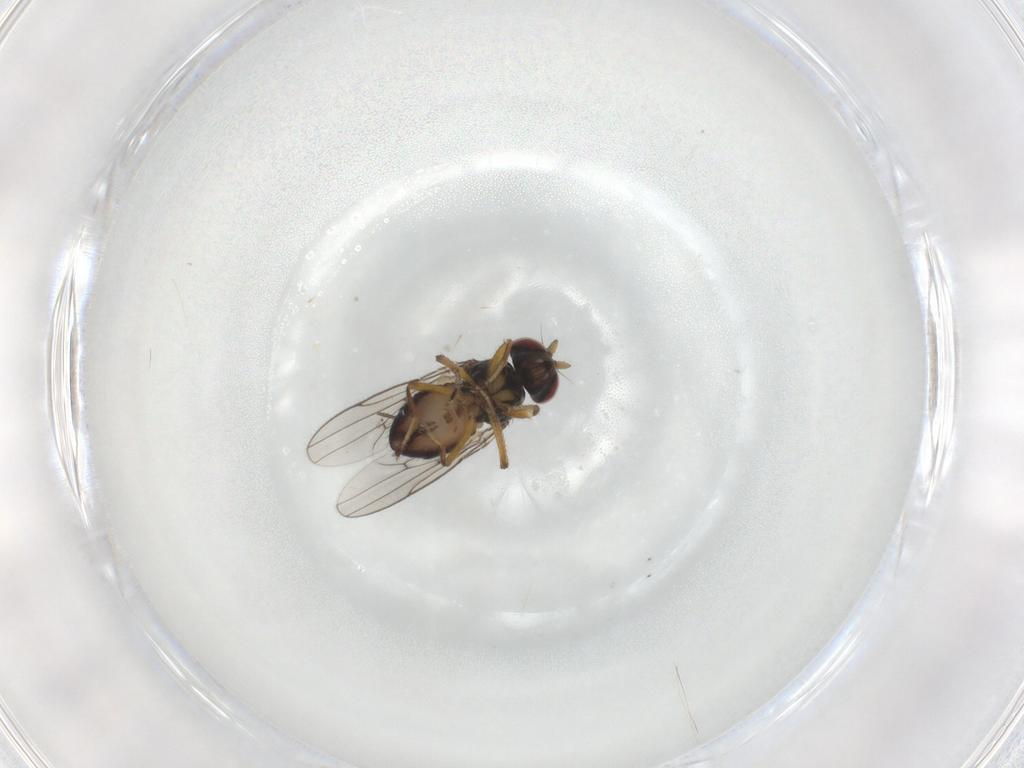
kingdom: Animalia
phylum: Arthropoda
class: Insecta
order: Diptera
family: Ephydridae
